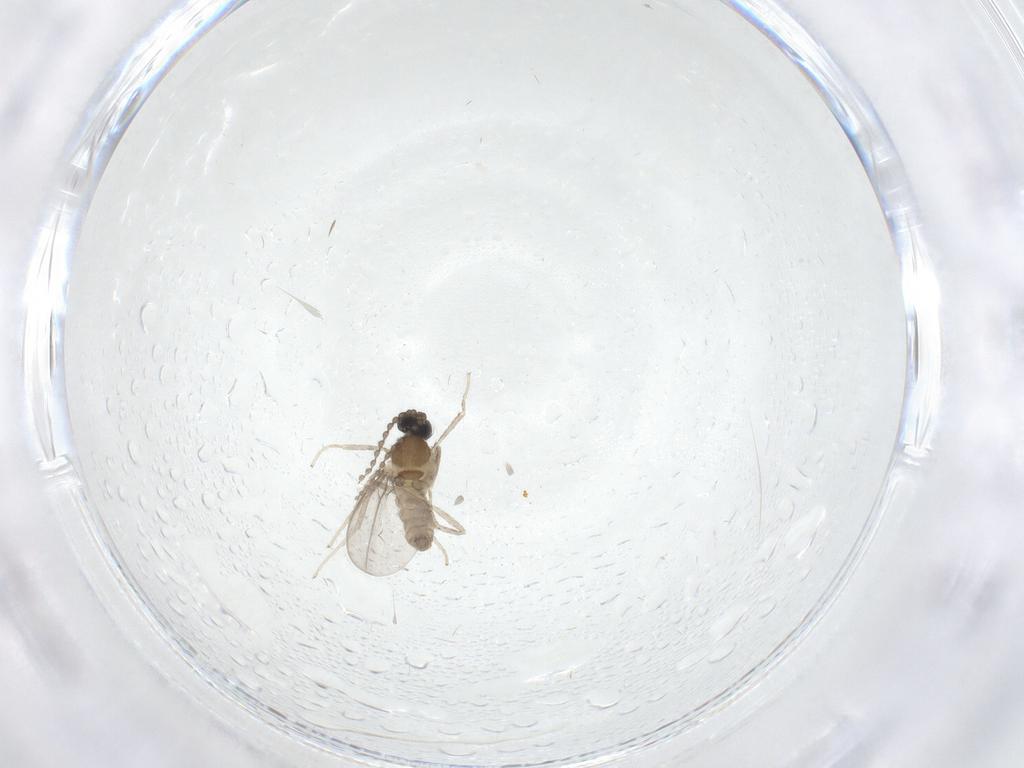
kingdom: Animalia
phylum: Arthropoda
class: Insecta
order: Diptera
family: Cecidomyiidae
